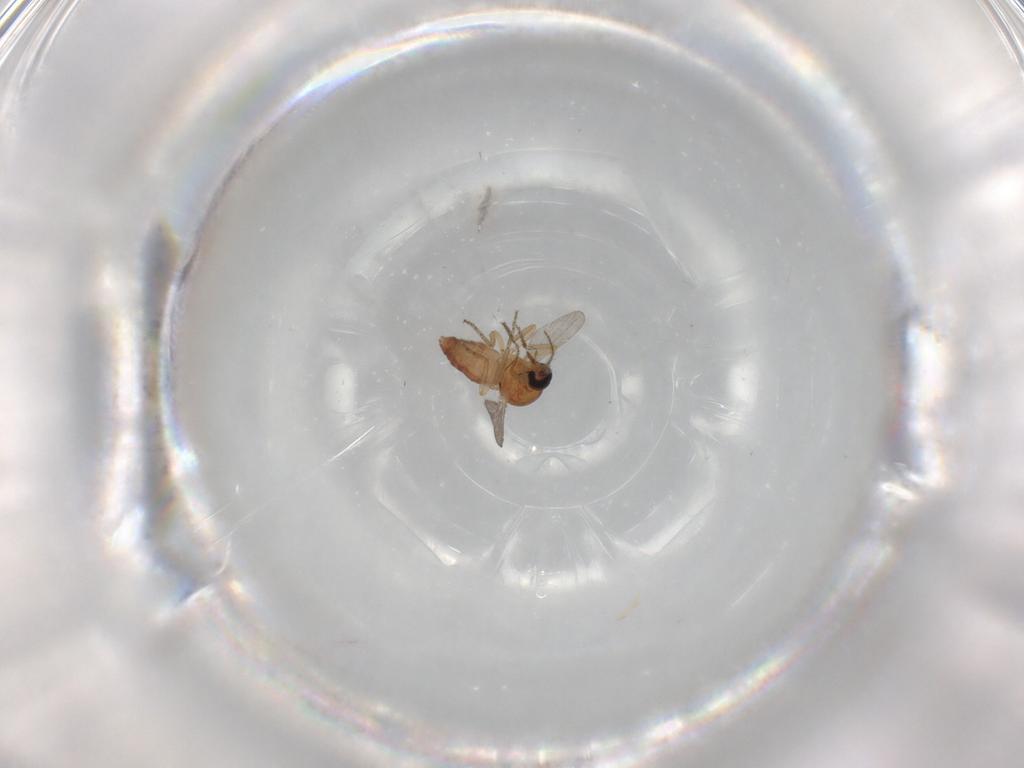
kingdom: Animalia
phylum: Arthropoda
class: Insecta
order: Diptera
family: Ceratopogonidae
